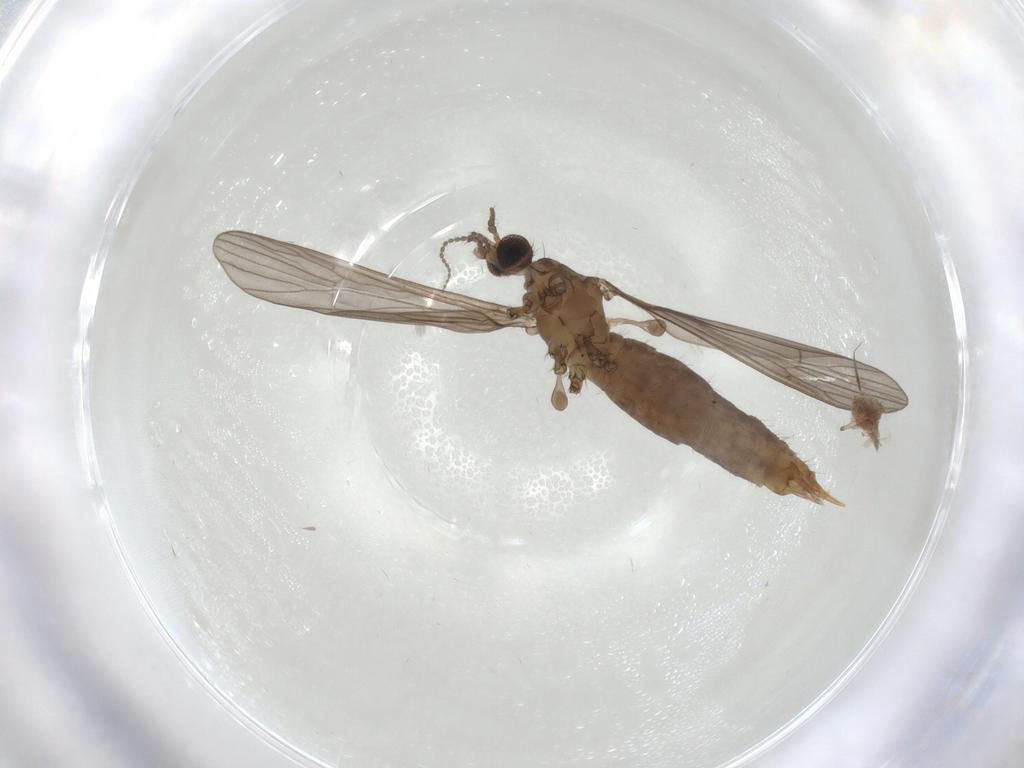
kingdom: Animalia
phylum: Arthropoda
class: Insecta
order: Diptera
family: Limoniidae
